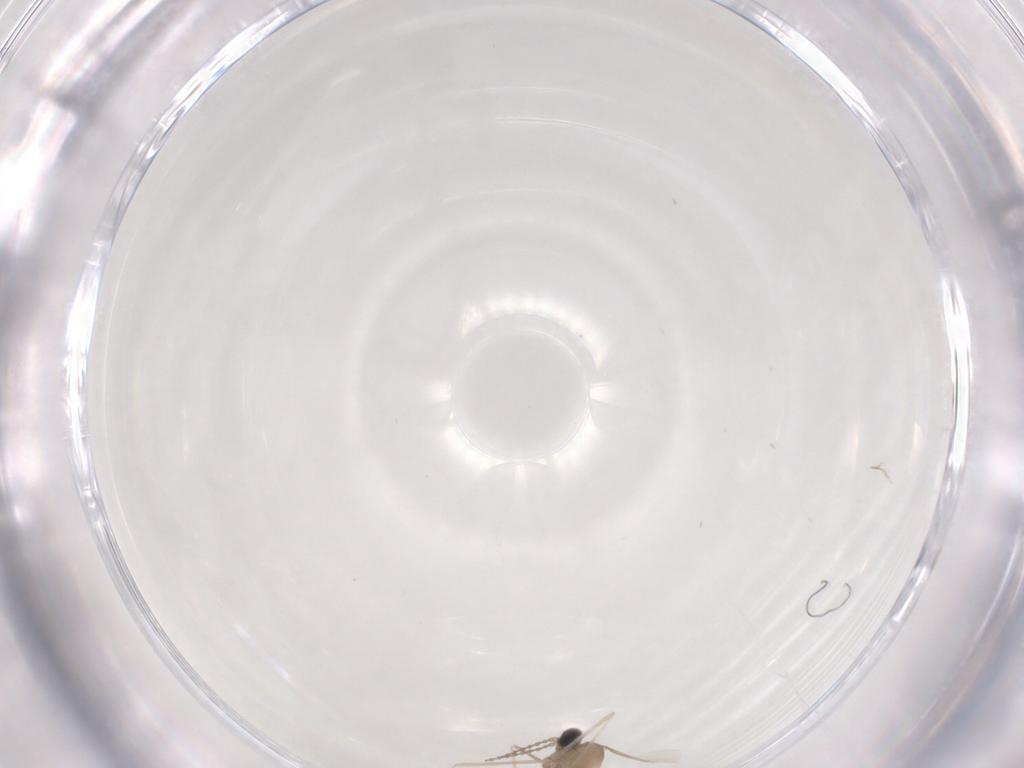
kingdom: Animalia
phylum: Arthropoda
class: Insecta
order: Diptera
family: Cecidomyiidae
